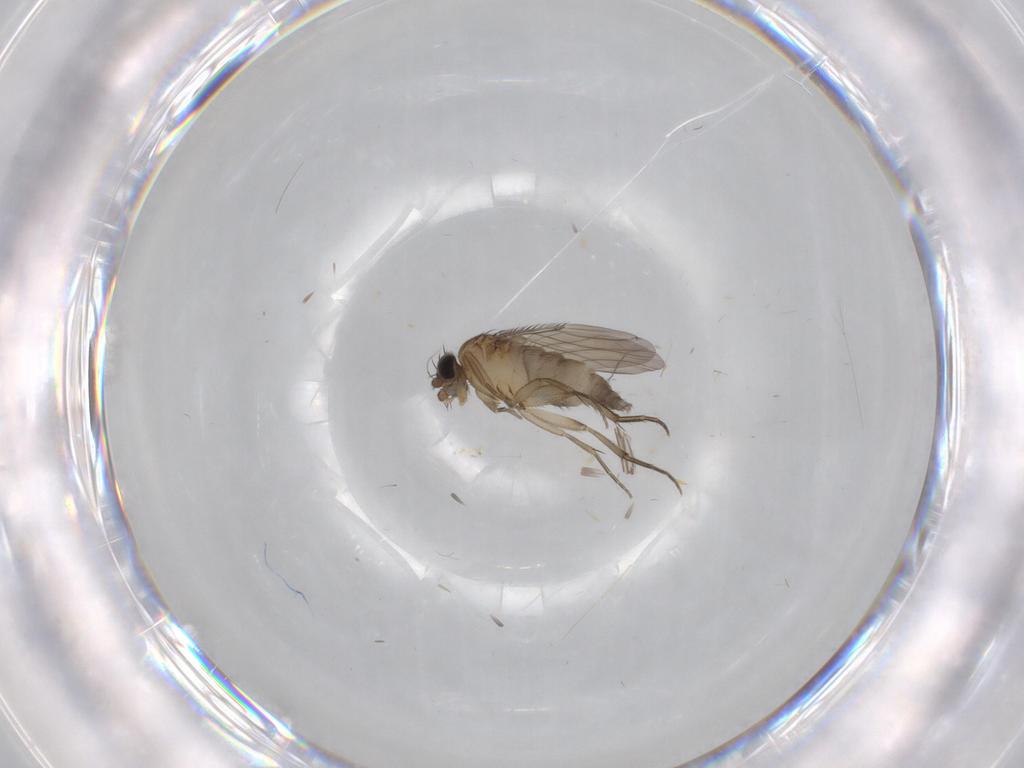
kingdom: Animalia
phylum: Arthropoda
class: Insecta
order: Diptera
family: Phoridae
